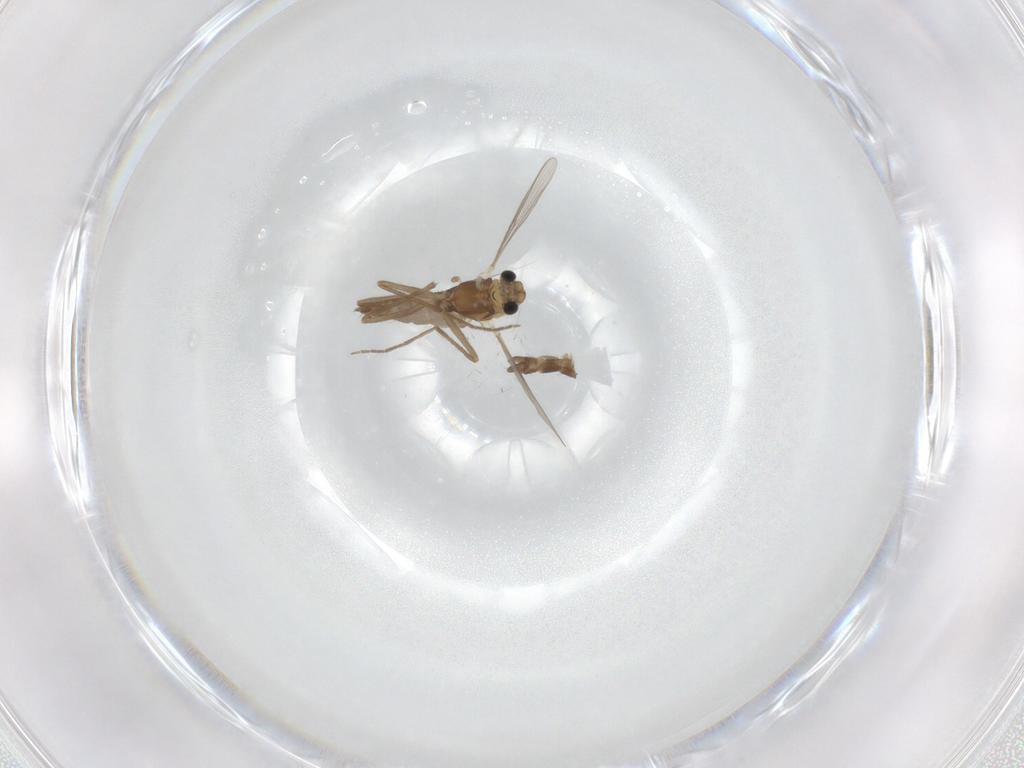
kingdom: Animalia
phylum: Arthropoda
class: Insecta
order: Diptera
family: Chironomidae
